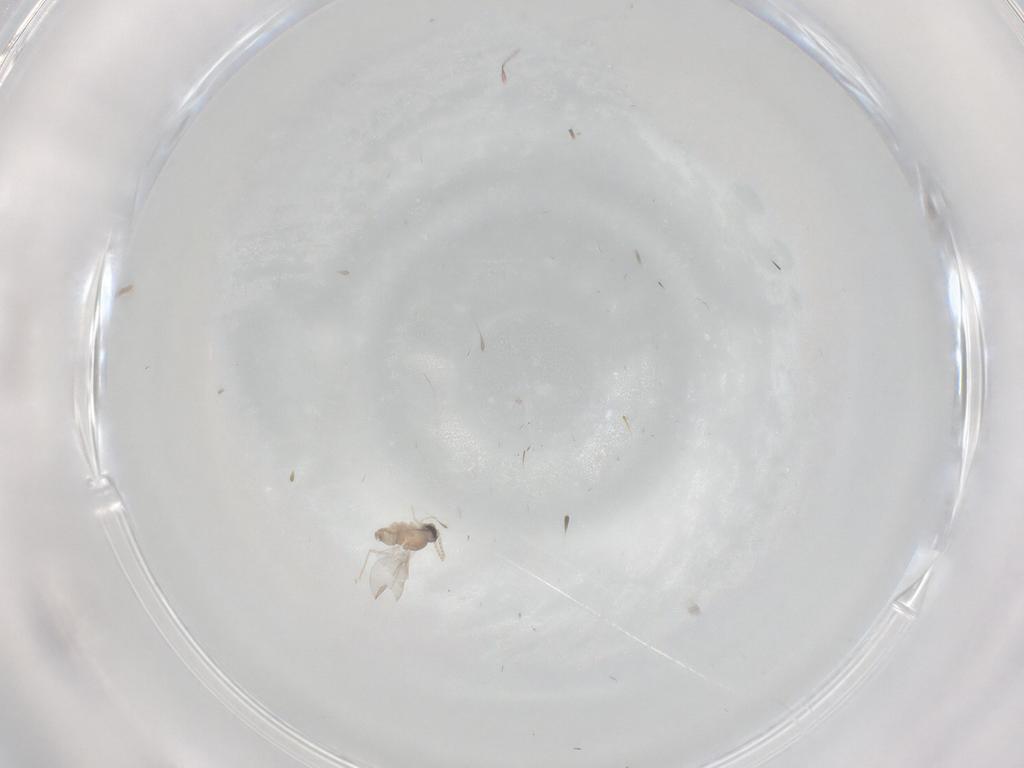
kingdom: Animalia
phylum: Arthropoda
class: Insecta
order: Diptera
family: Cecidomyiidae
